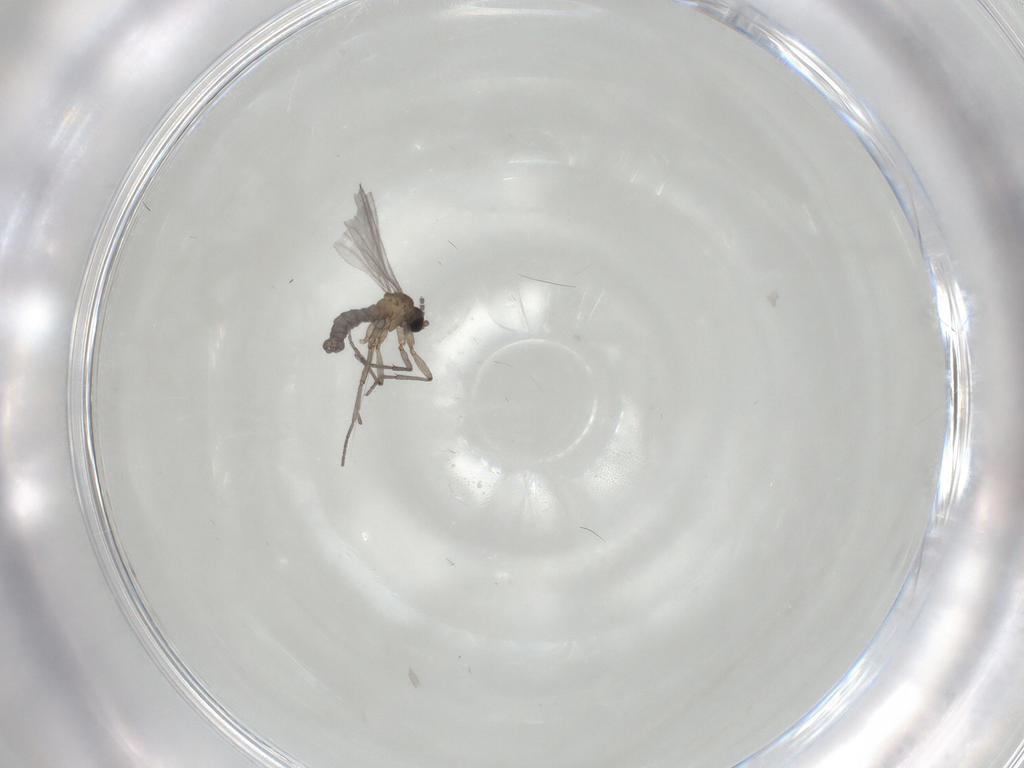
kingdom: Animalia
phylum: Arthropoda
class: Insecta
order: Diptera
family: Sciaridae
